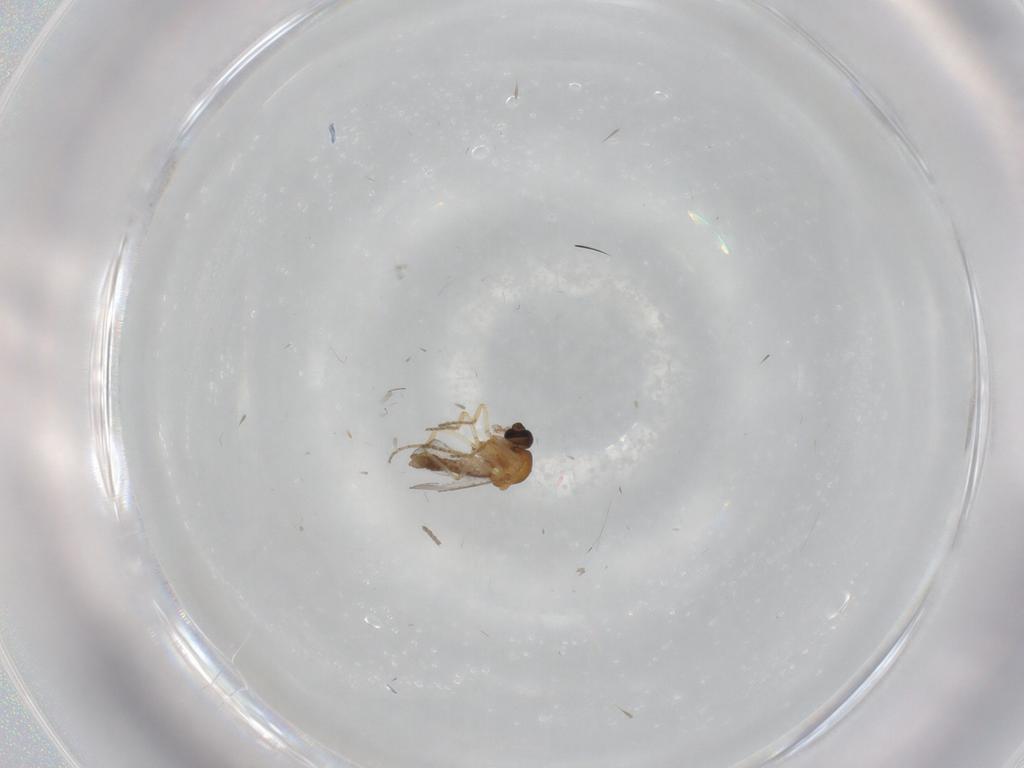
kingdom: Animalia
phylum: Arthropoda
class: Insecta
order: Diptera
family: Ceratopogonidae
